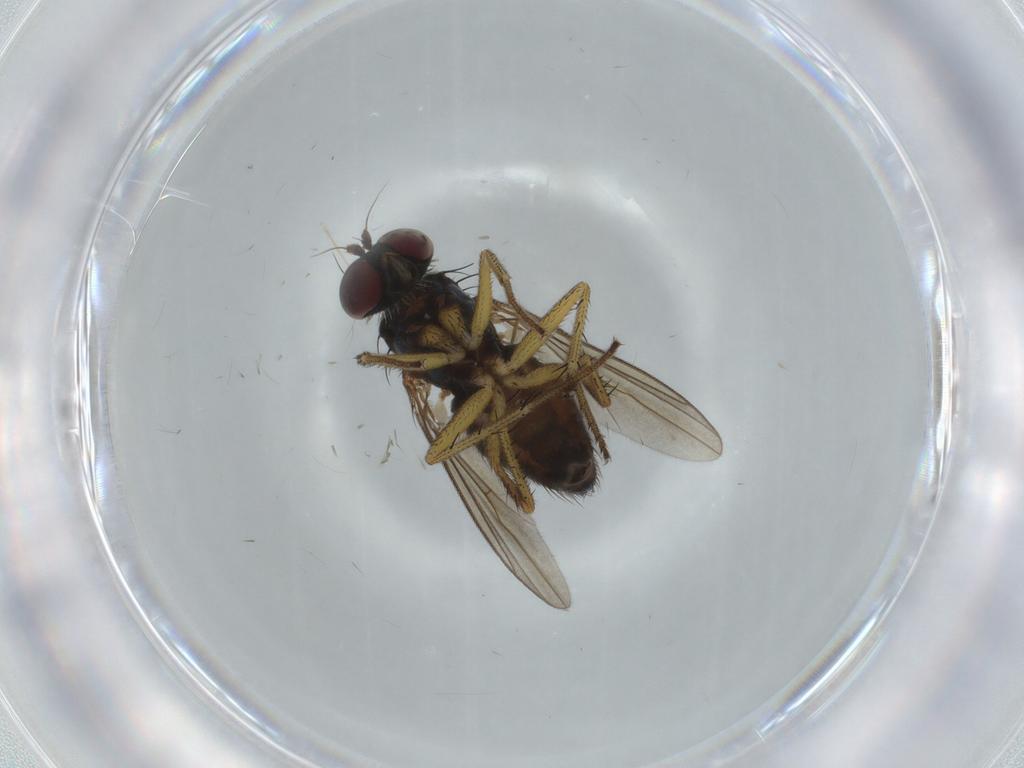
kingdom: Animalia
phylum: Arthropoda
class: Insecta
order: Diptera
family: Dolichopodidae
